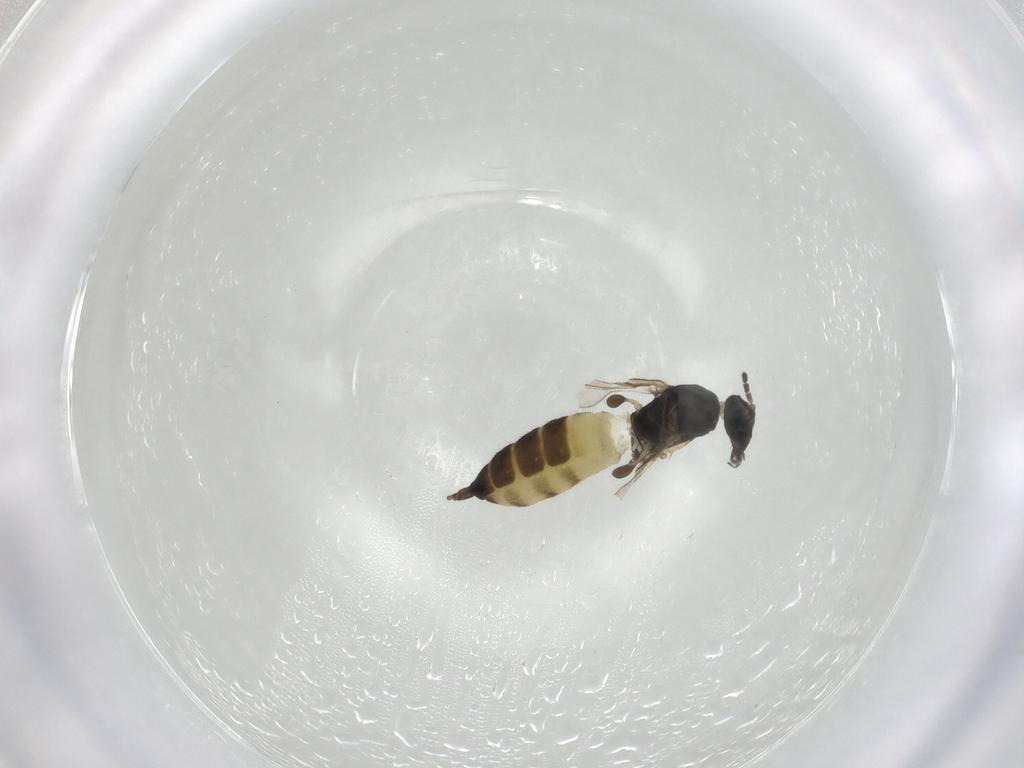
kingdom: Animalia
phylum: Arthropoda
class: Insecta
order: Diptera
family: Sciaridae
